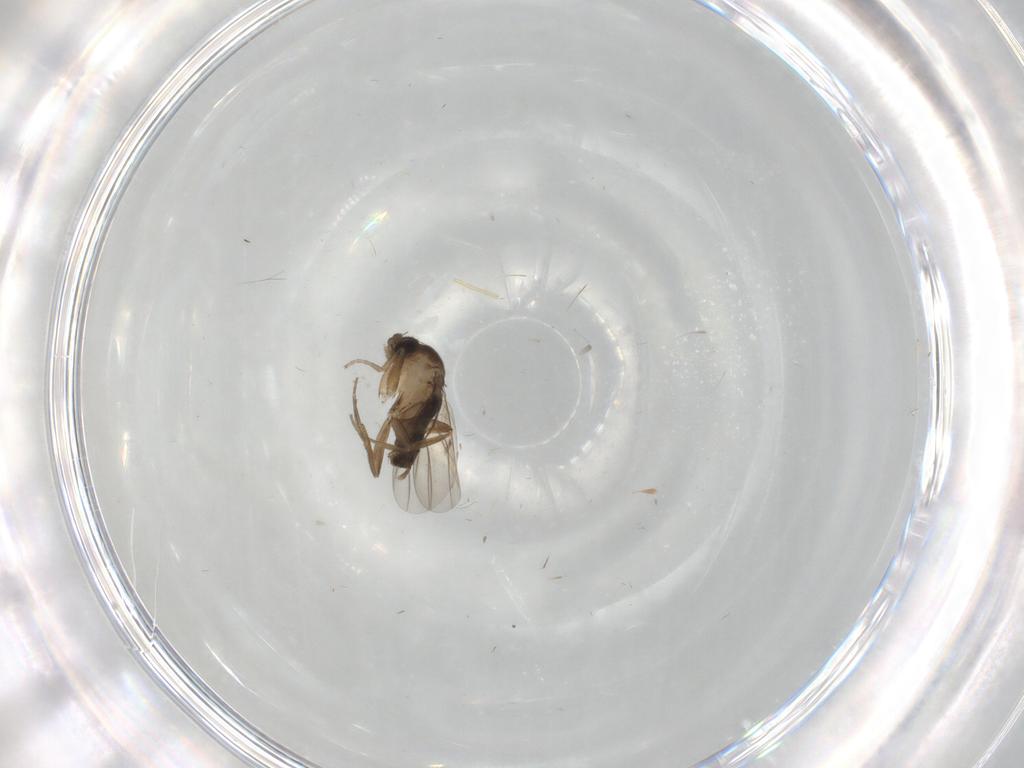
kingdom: Animalia
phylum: Arthropoda
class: Insecta
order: Diptera
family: Phoridae
